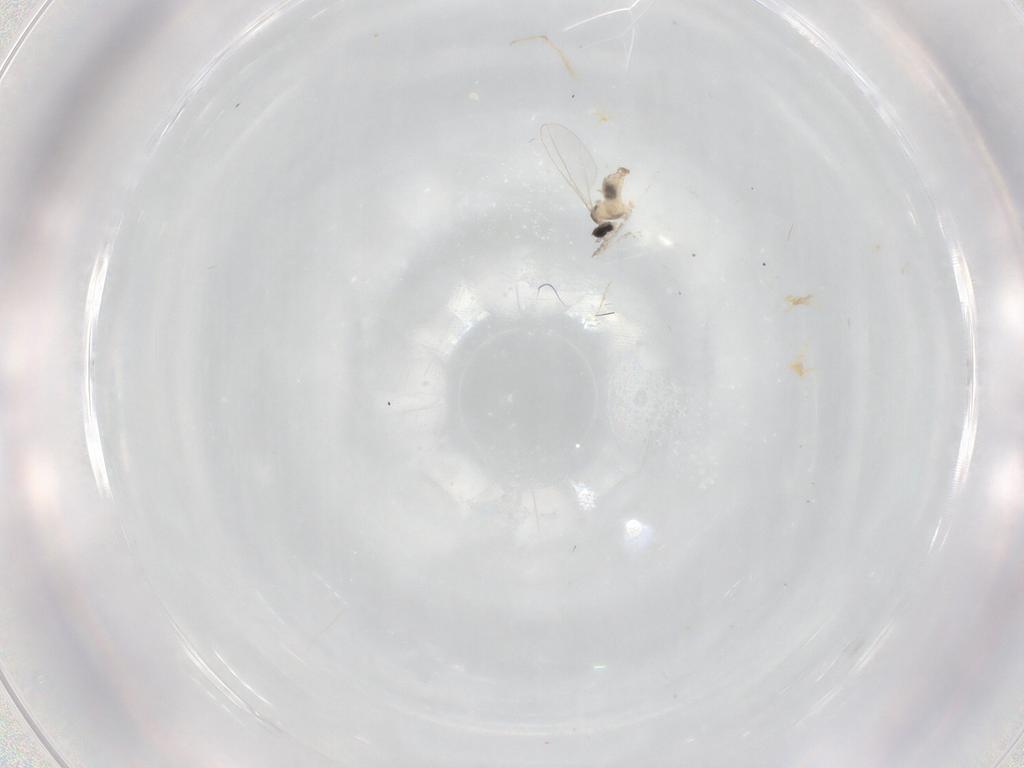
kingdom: Animalia
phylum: Arthropoda
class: Insecta
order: Diptera
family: Cecidomyiidae
